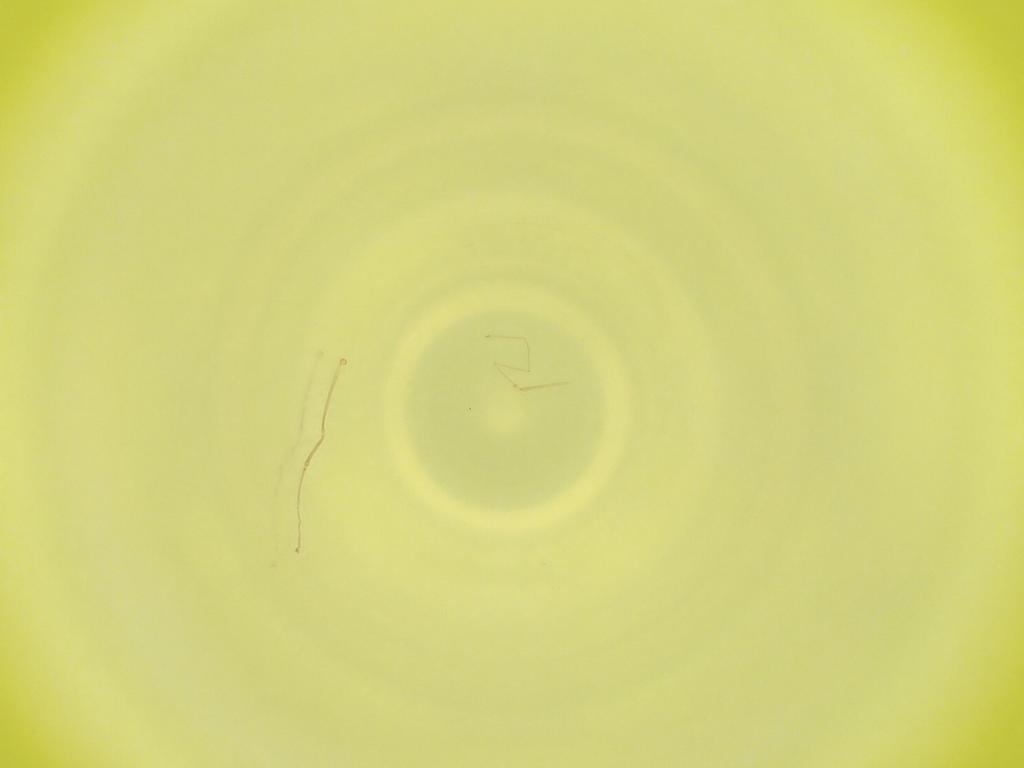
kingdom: Animalia
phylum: Arthropoda
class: Insecta
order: Diptera
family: Cecidomyiidae
